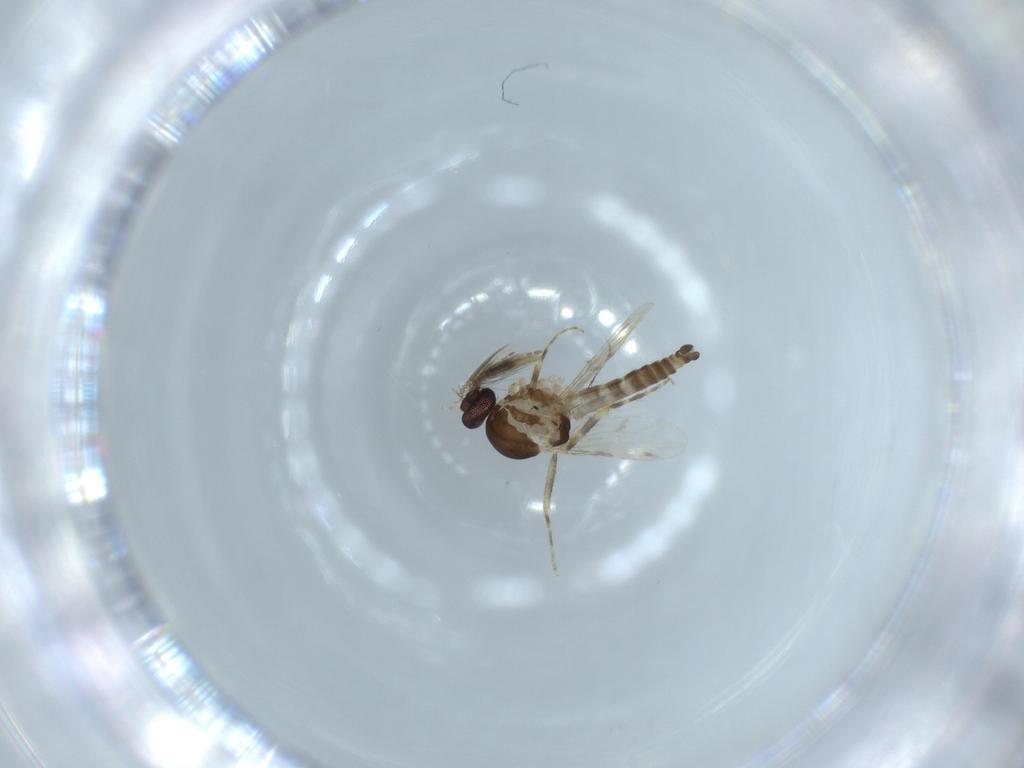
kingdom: Animalia
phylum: Arthropoda
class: Insecta
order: Diptera
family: Ceratopogonidae
